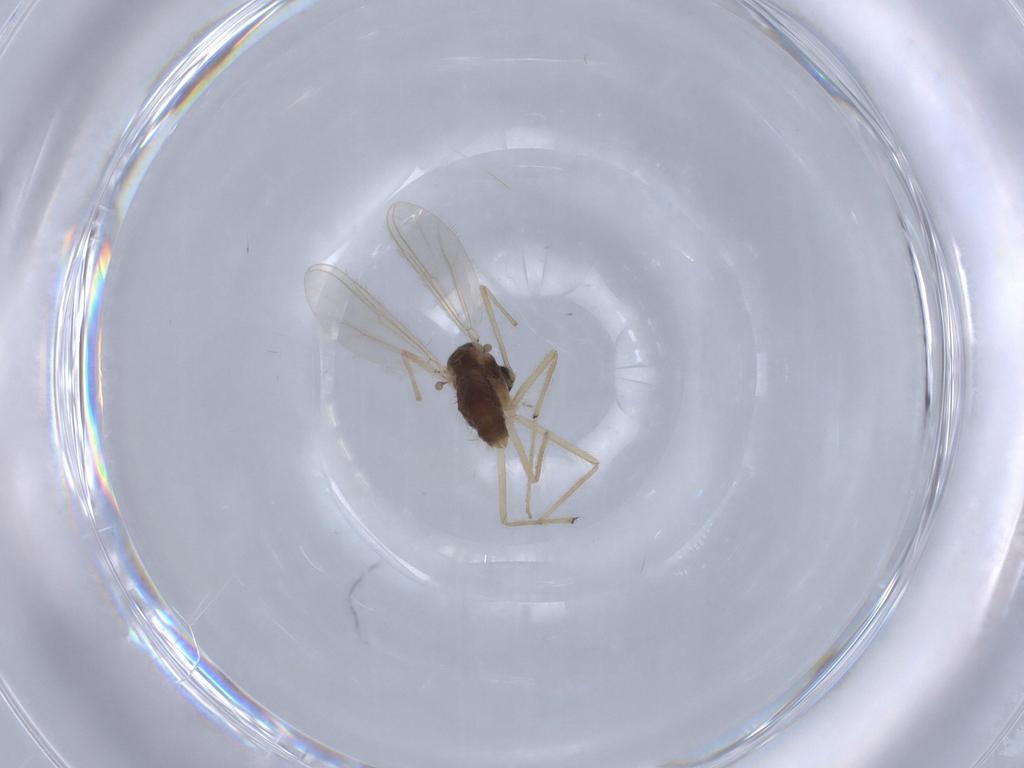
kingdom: Animalia
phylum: Arthropoda
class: Insecta
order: Diptera
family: Chironomidae
